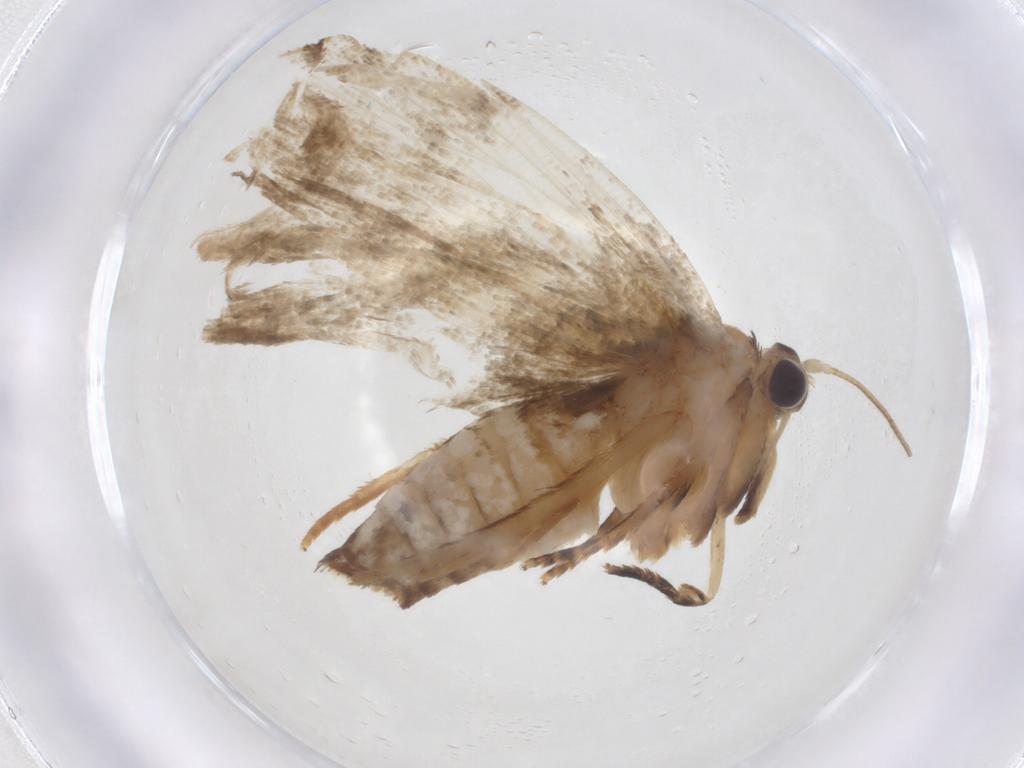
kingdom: Animalia
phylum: Arthropoda
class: Insecta
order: Lepidoptera
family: Tortricidae
